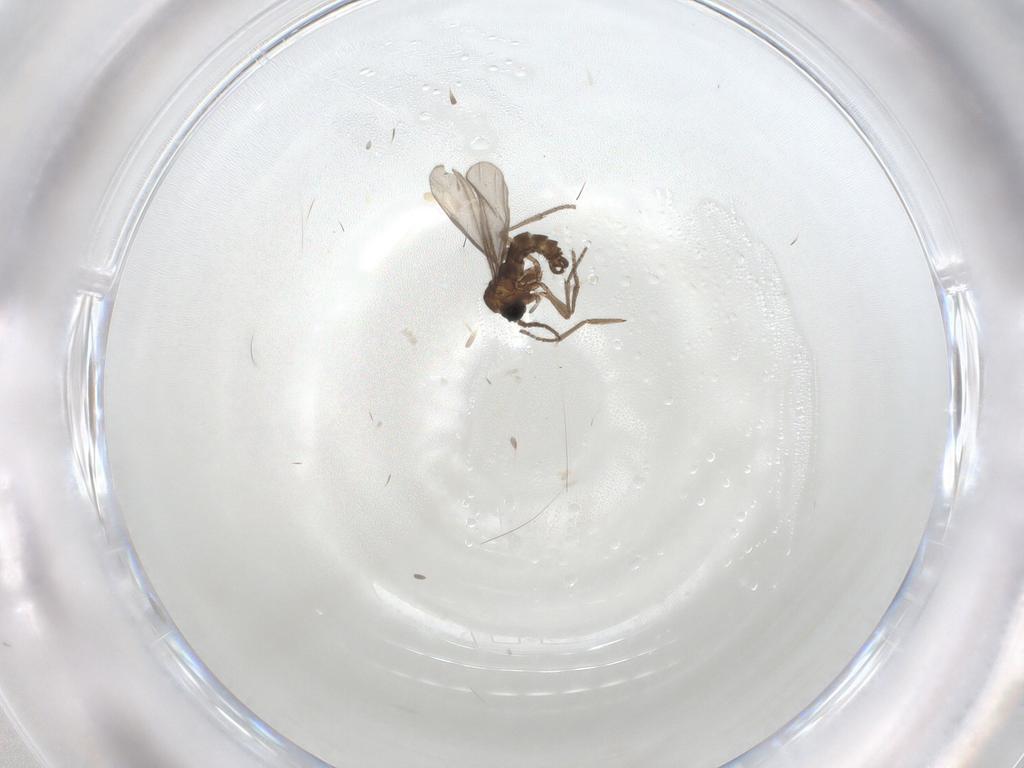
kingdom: Animalia
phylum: Arthropoda
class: Insecta
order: Diptera
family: Sciaridae
